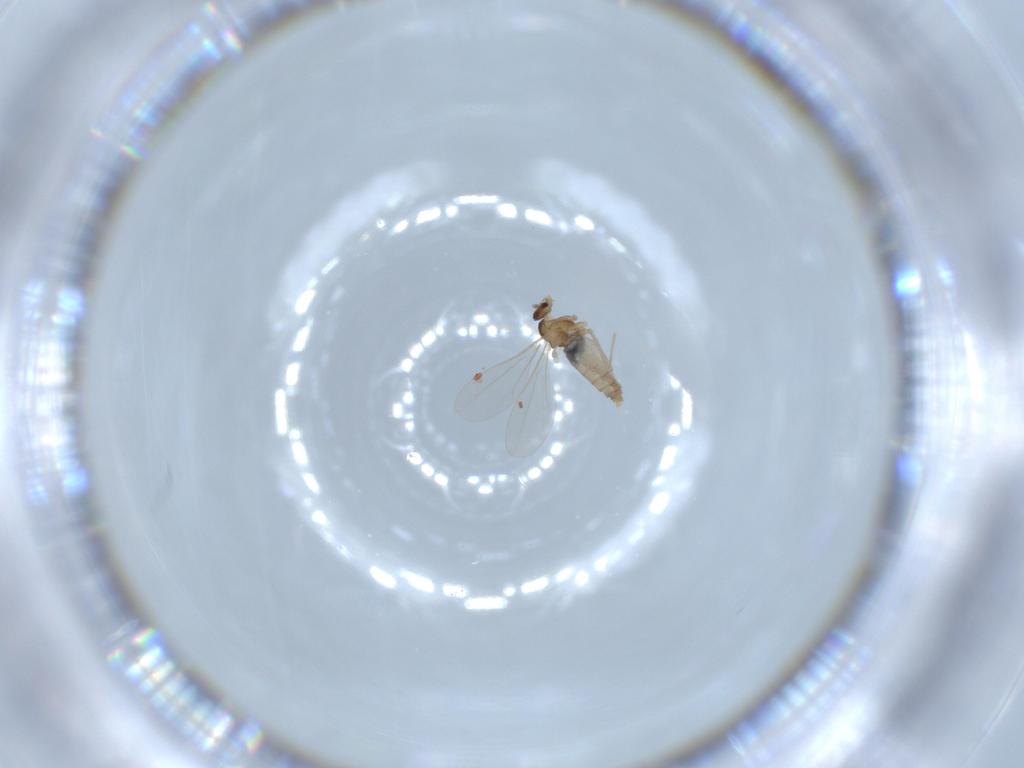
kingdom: Animalia
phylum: Arthropoda
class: Insecta
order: Diptera
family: Cecidomyiidae
